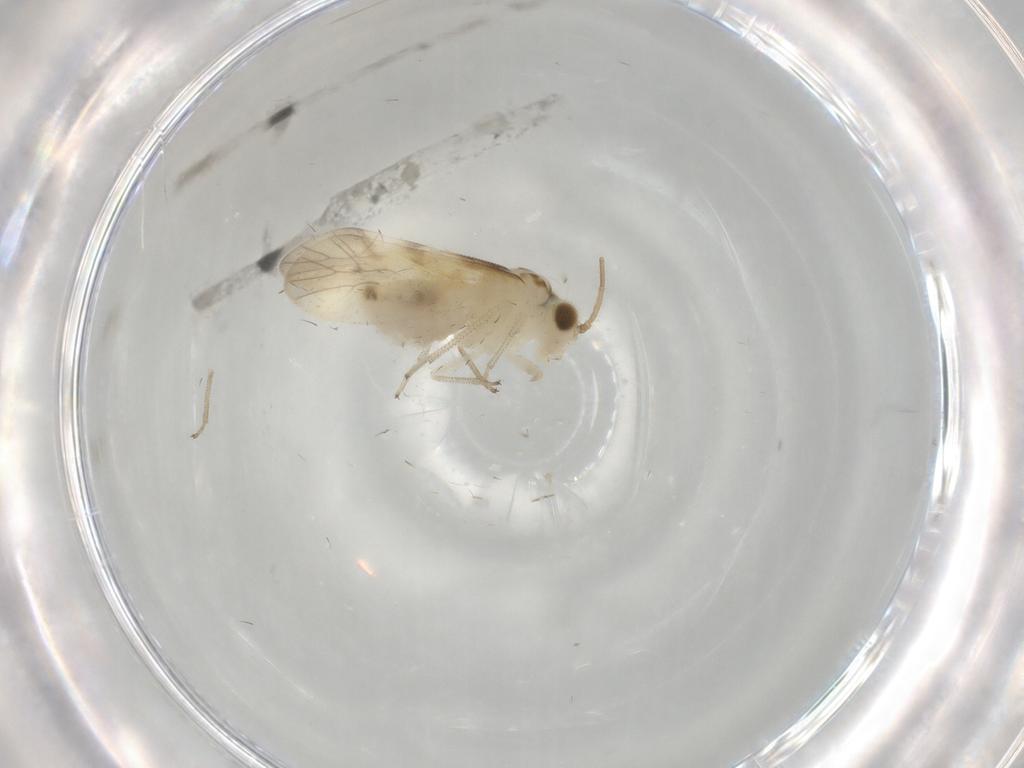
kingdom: Animalia
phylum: Arthropoda
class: Insecta
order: Psocodea
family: Caeciliusidae
